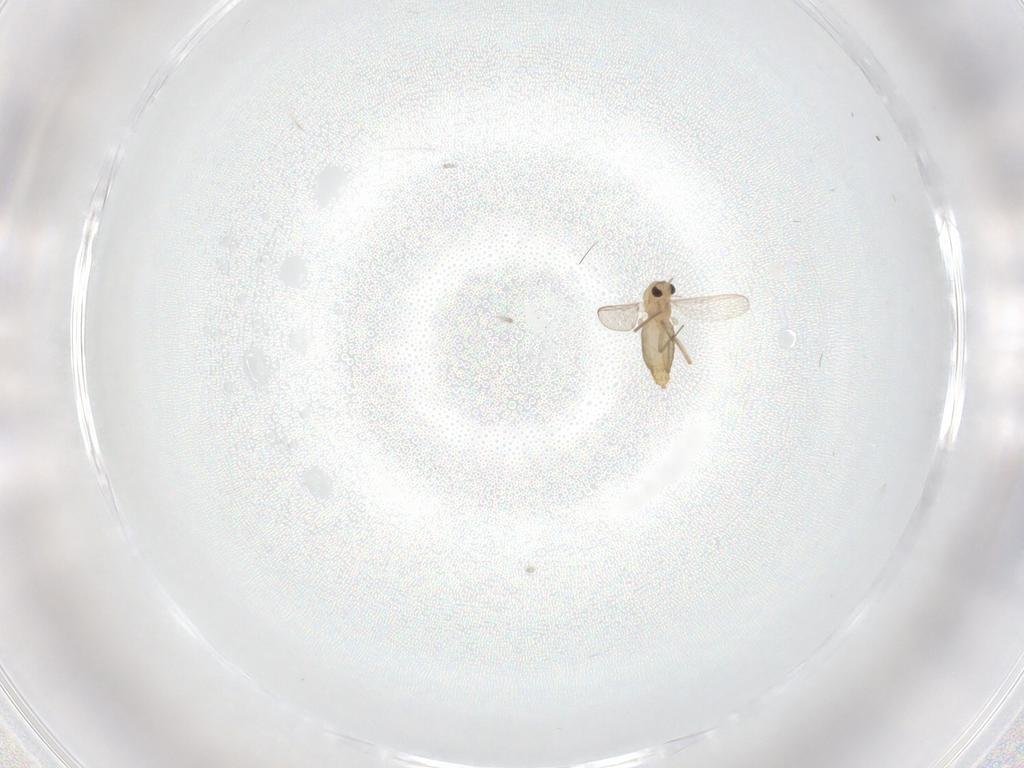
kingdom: Animalia
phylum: Arthropoda
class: Insecta
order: Diptera
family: Chironomidae
